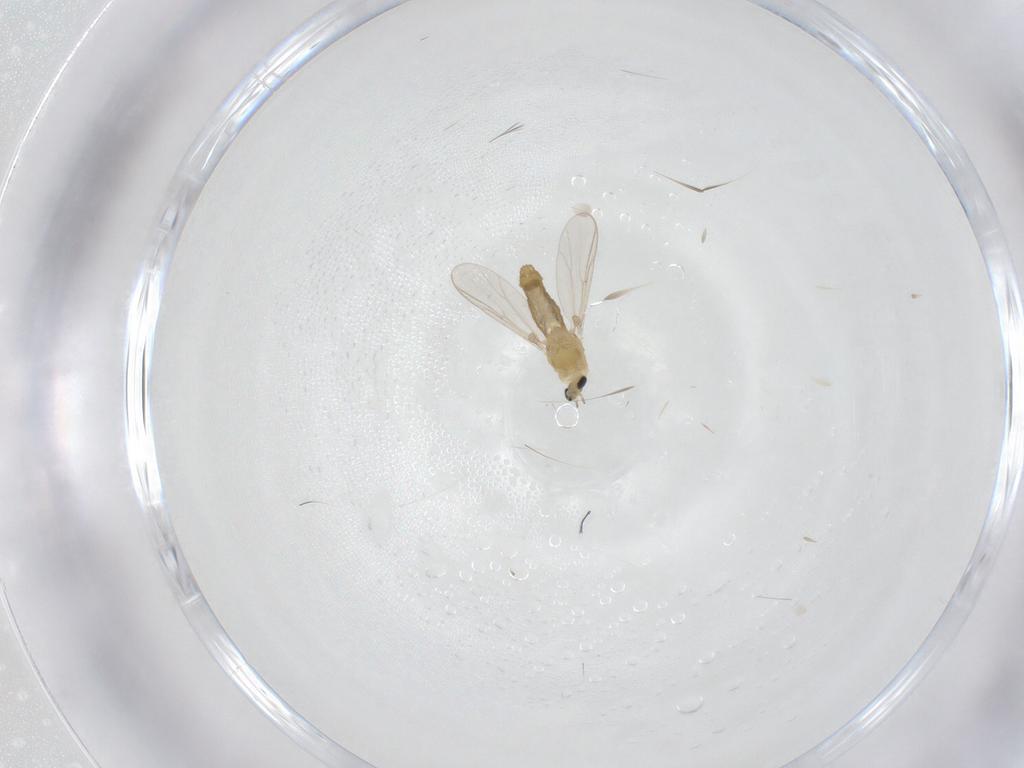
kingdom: Animalia
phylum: Arthropoda
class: Insecta
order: Diptera
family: Chironomidae
